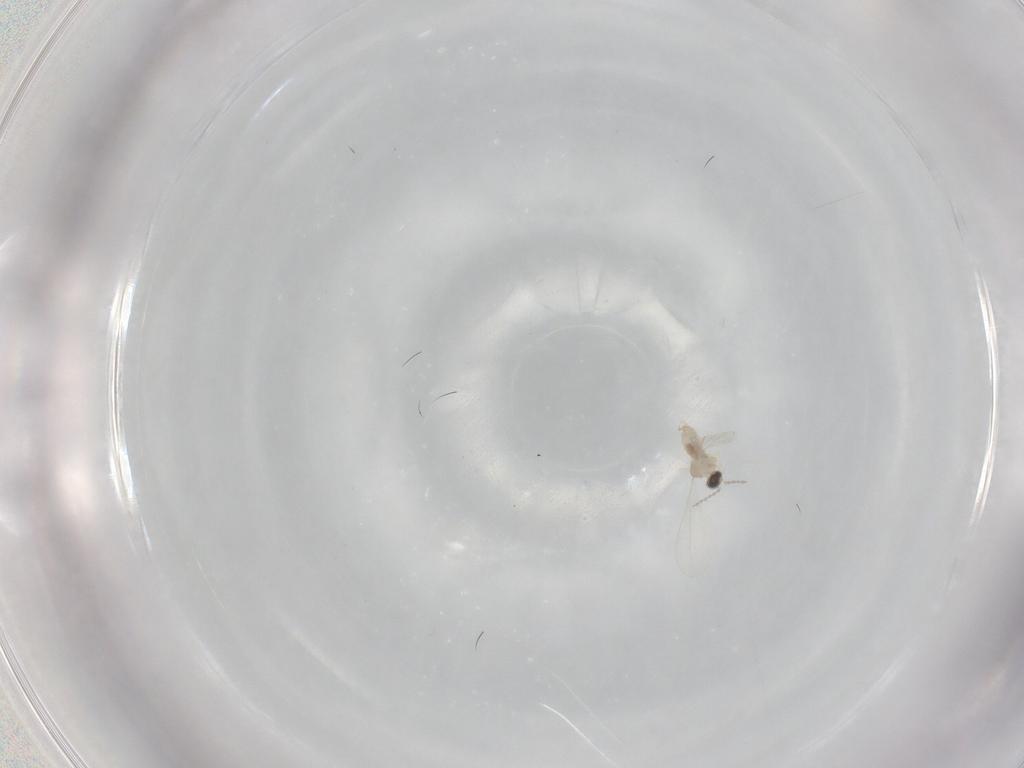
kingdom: Animalia
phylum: Arthropoda
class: Insecta
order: Diptera
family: Cecidomyiidae
